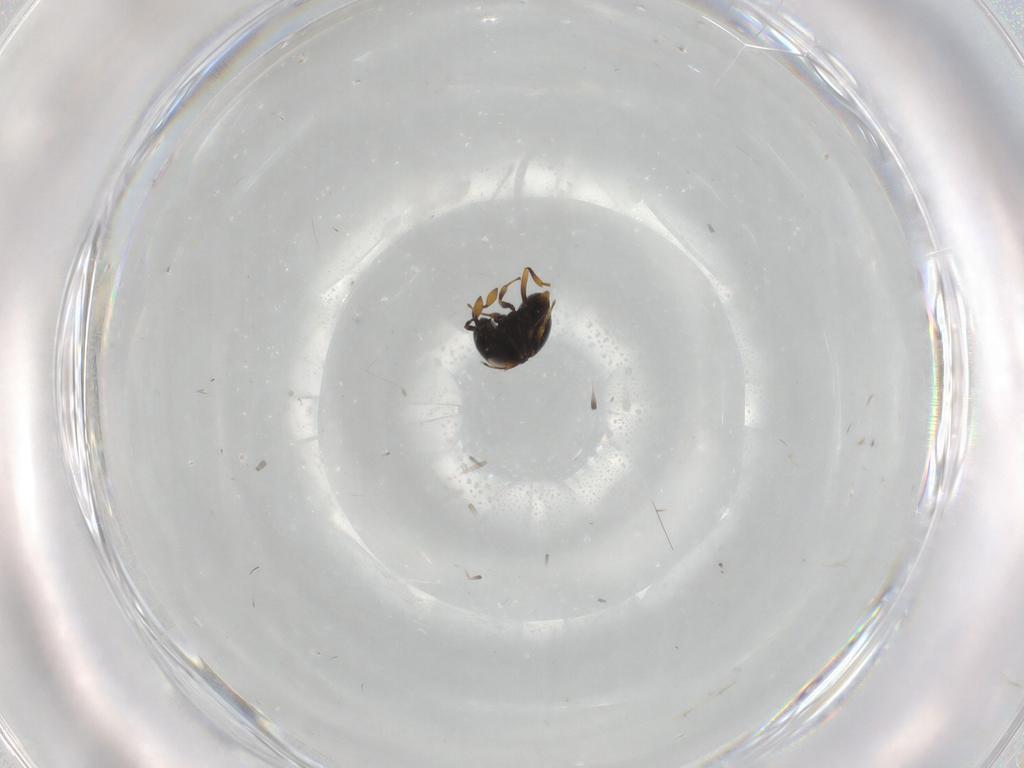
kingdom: Animalia
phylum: Arthropoda
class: Insecta
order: Hymenoptera
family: Scelionidae
